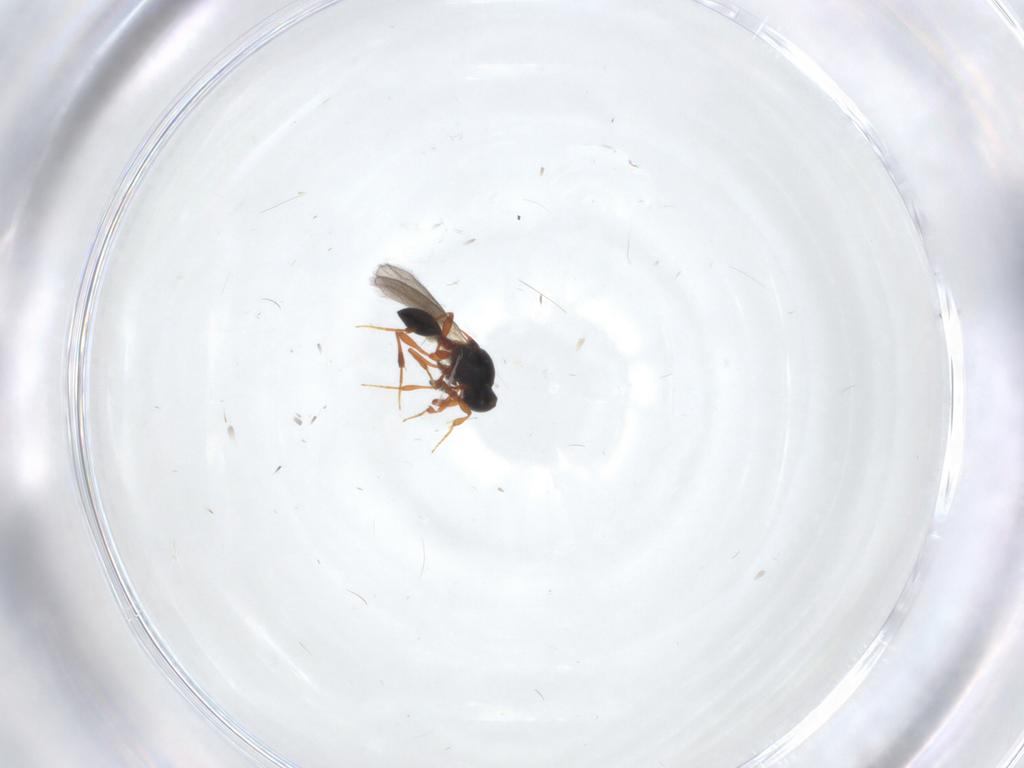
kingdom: Animalia
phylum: Arthropoda
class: Insecta
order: Hymenoptera
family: Platygastridae
